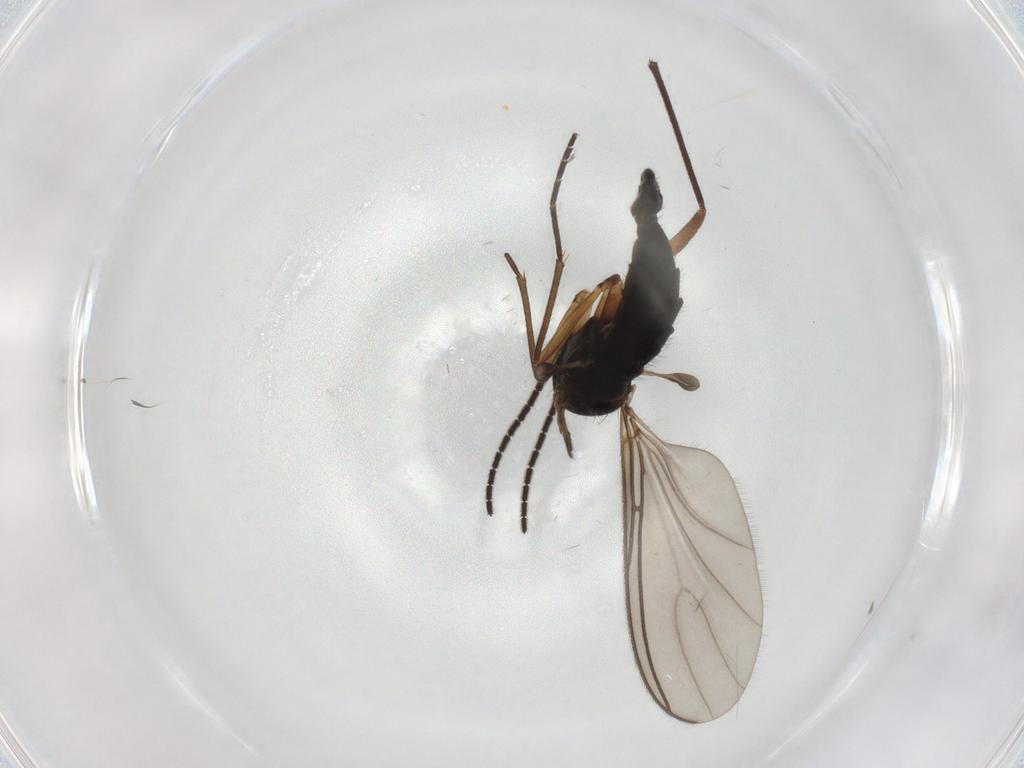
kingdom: Animalia
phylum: Arthropoda
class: Insecta
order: Diptera
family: Sciaridae
